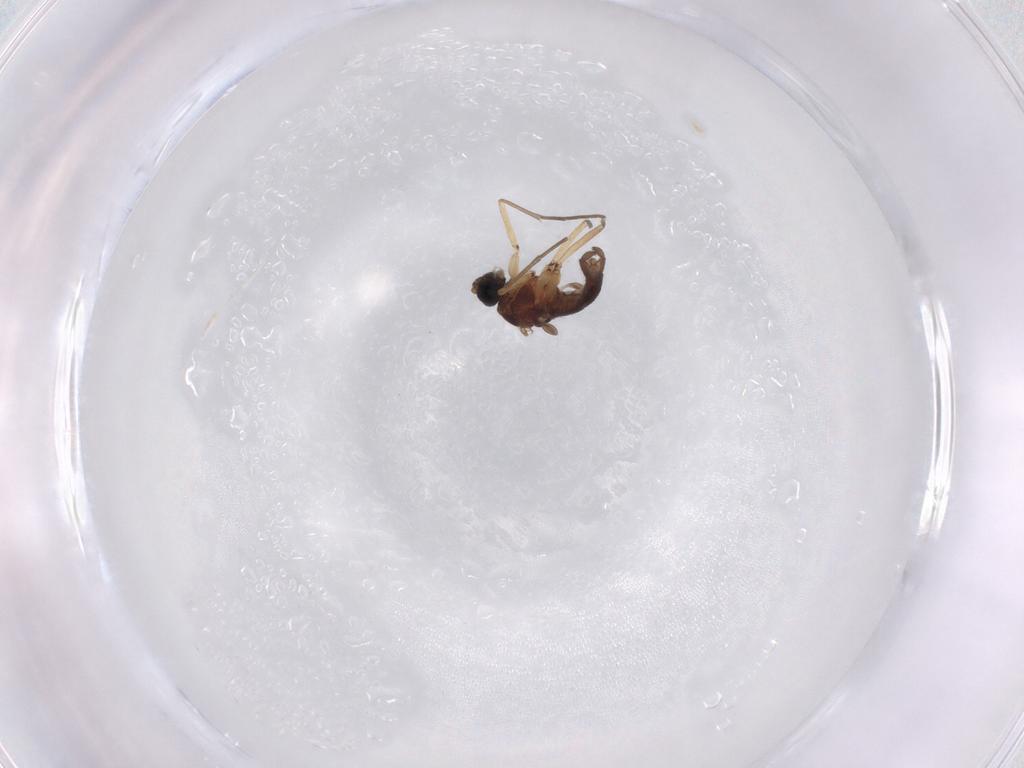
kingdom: Animalia
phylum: Arthropoda
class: Insecta
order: Diptera
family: Sciaridae
